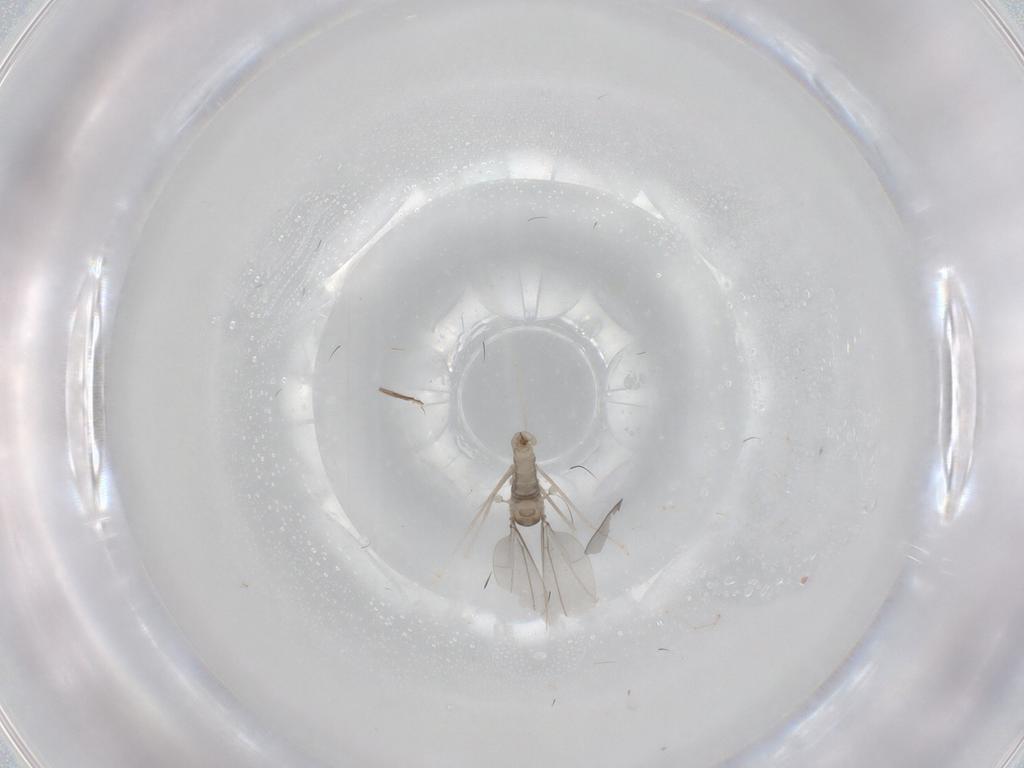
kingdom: Animalia
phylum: Arthropoda
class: Insecta
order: Diptera
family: Cecidomyiidae
